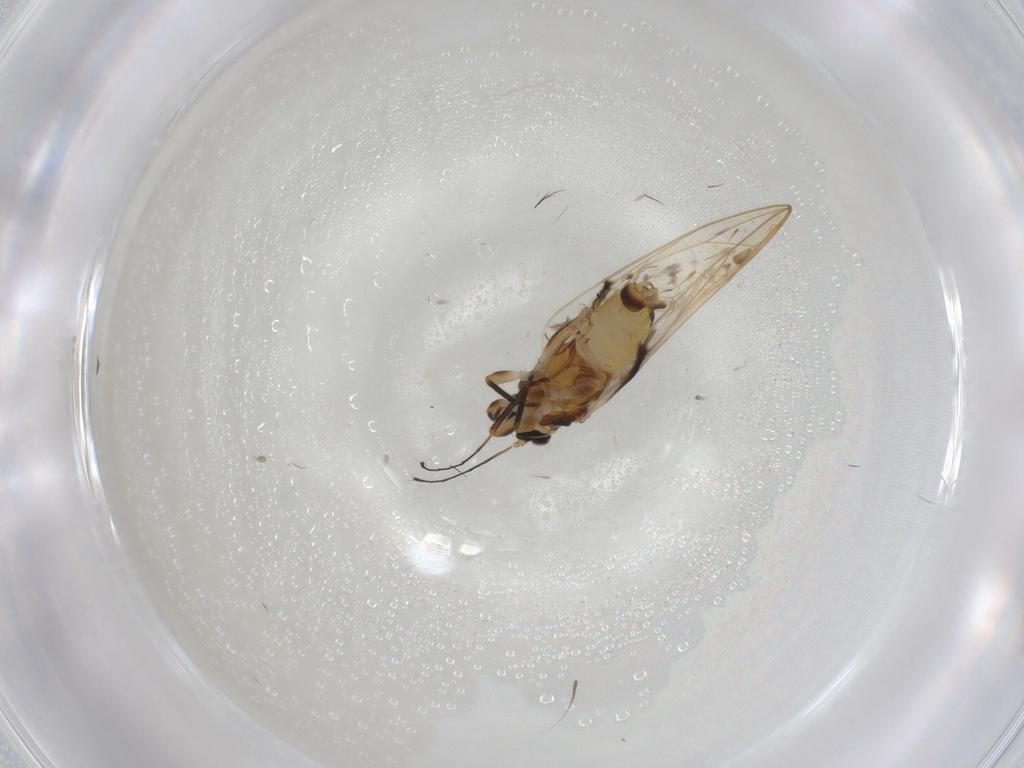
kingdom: Animalia
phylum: Arthropoda
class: Insecta
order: Hemiptera
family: Psylloidea_incertae_sedis
